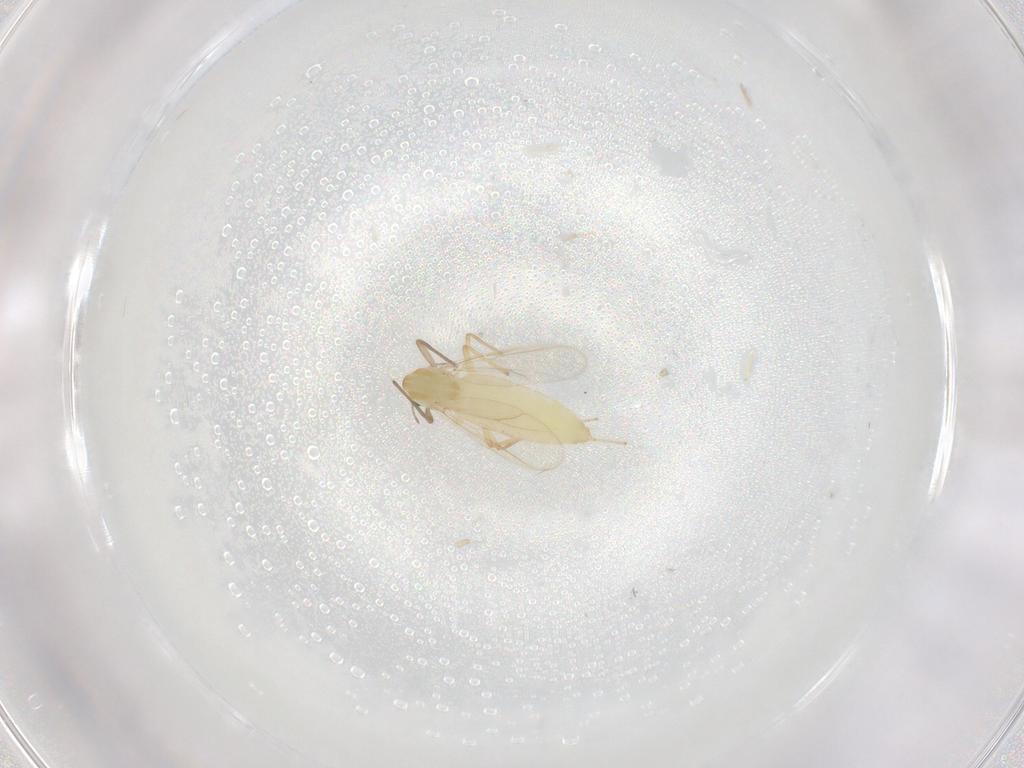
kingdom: Animalia
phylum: Arthropoda
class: Insecta
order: Diptera
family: Chironomidae
